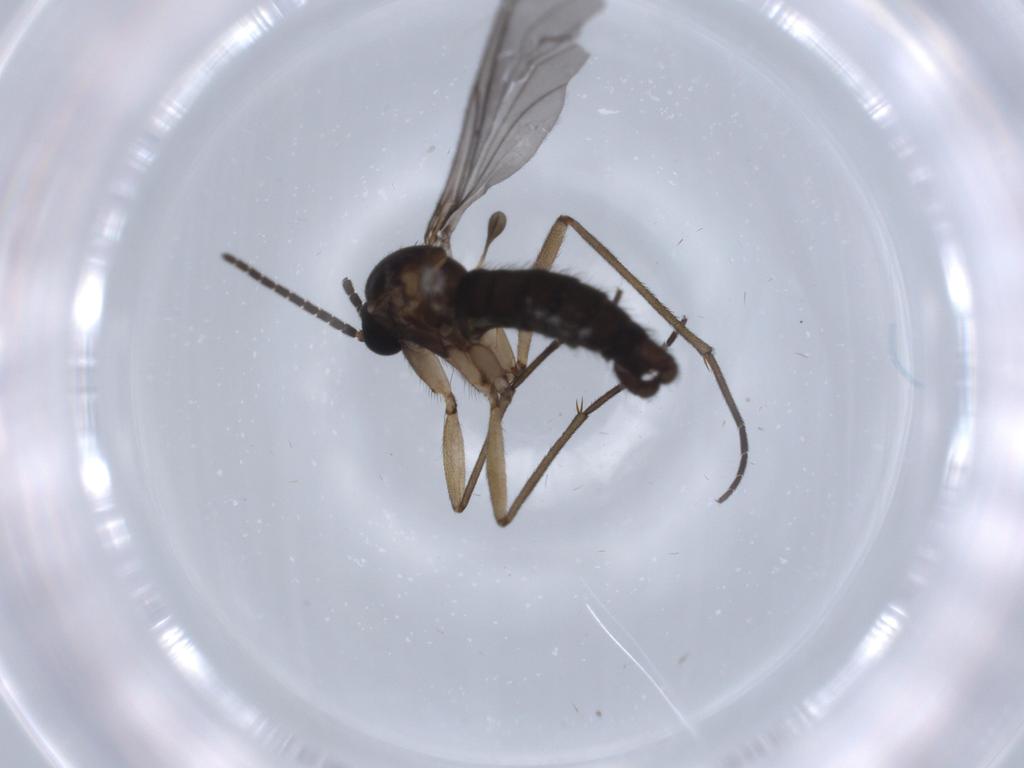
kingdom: Animalia
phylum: Arthropoda
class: Insecta
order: Diptera
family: Sciaridae
